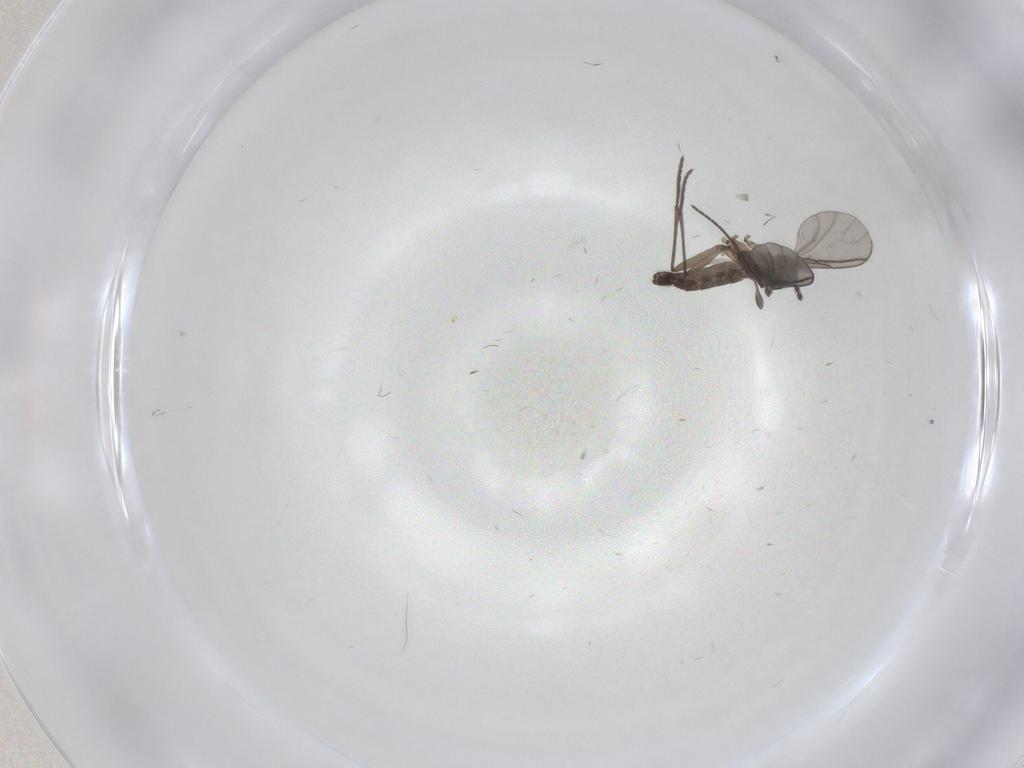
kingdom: Animalia
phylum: Arthropoda
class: Insecta
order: Diptera
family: Sciaridae
